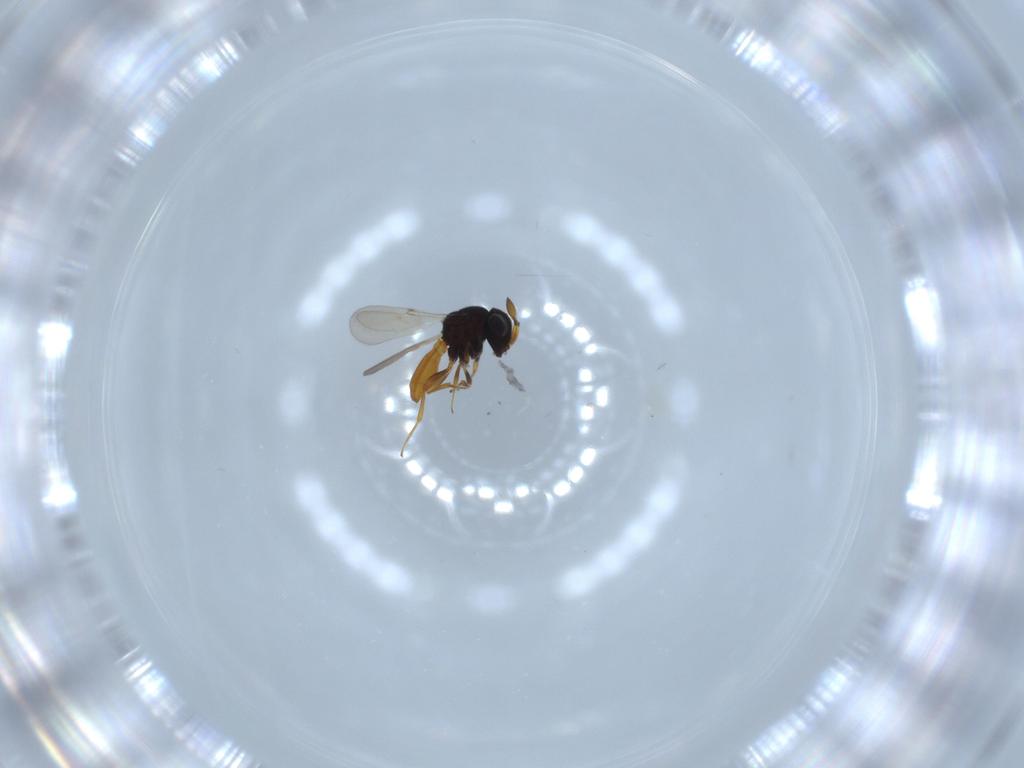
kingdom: Animalia
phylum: Arthropoda
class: Insecta
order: Hymenoptera
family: Scelionidae
